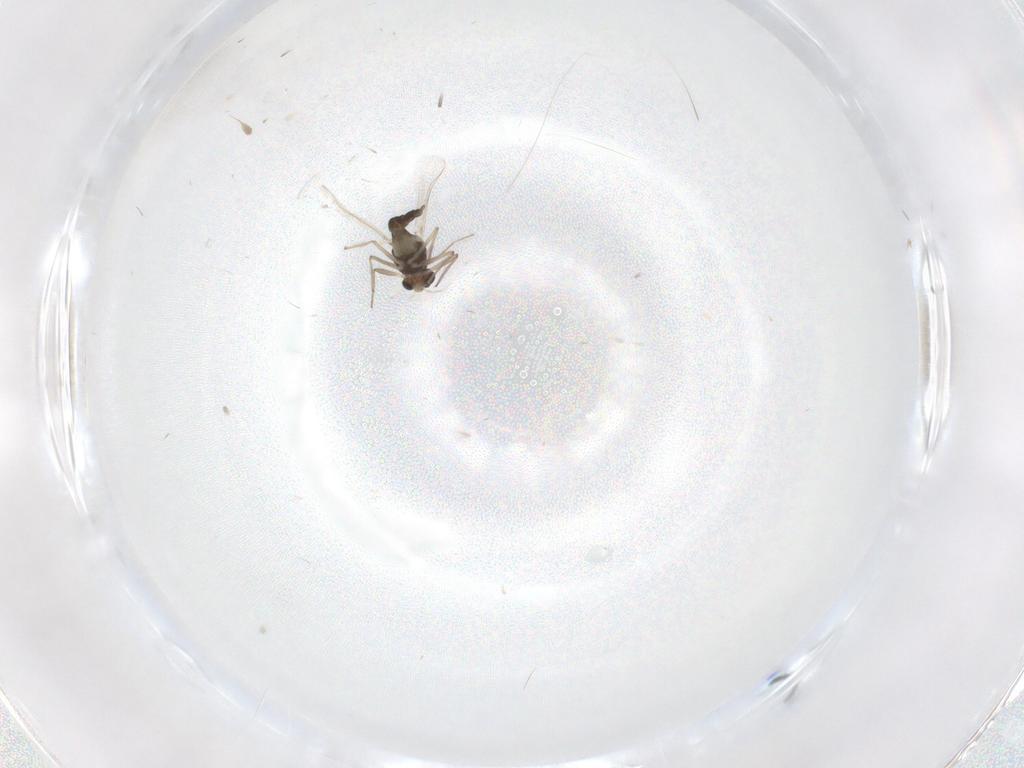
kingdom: Animalia
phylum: Arthropoda
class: Insecta
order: Diptera
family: Chironomidae
